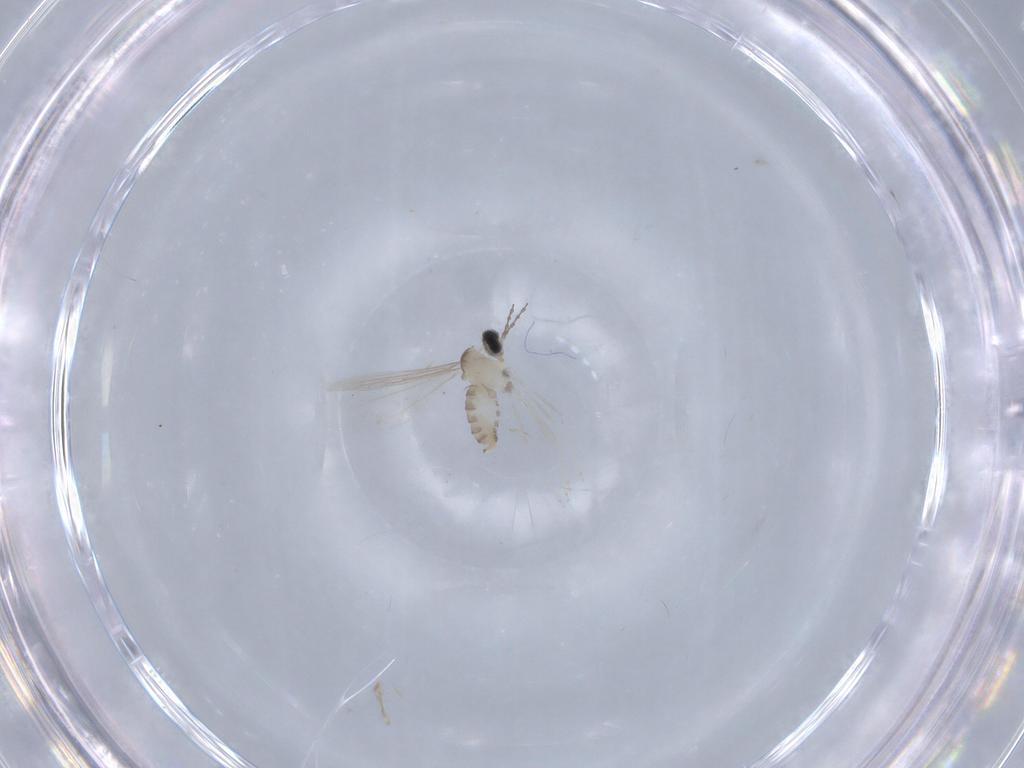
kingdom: Animalia
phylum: Arthropoda
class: Insecta
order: Diptera
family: Cecidomyiidae
